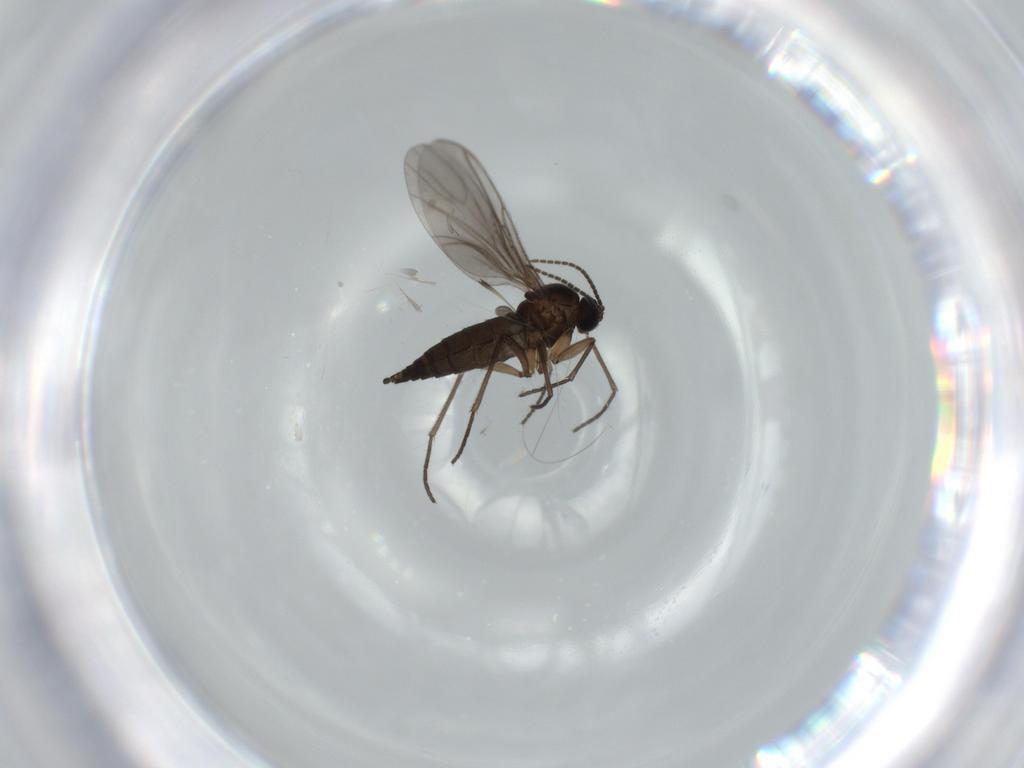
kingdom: Animalia
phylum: Arthropoda
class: Insecta
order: Diptera
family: Sciaridae
